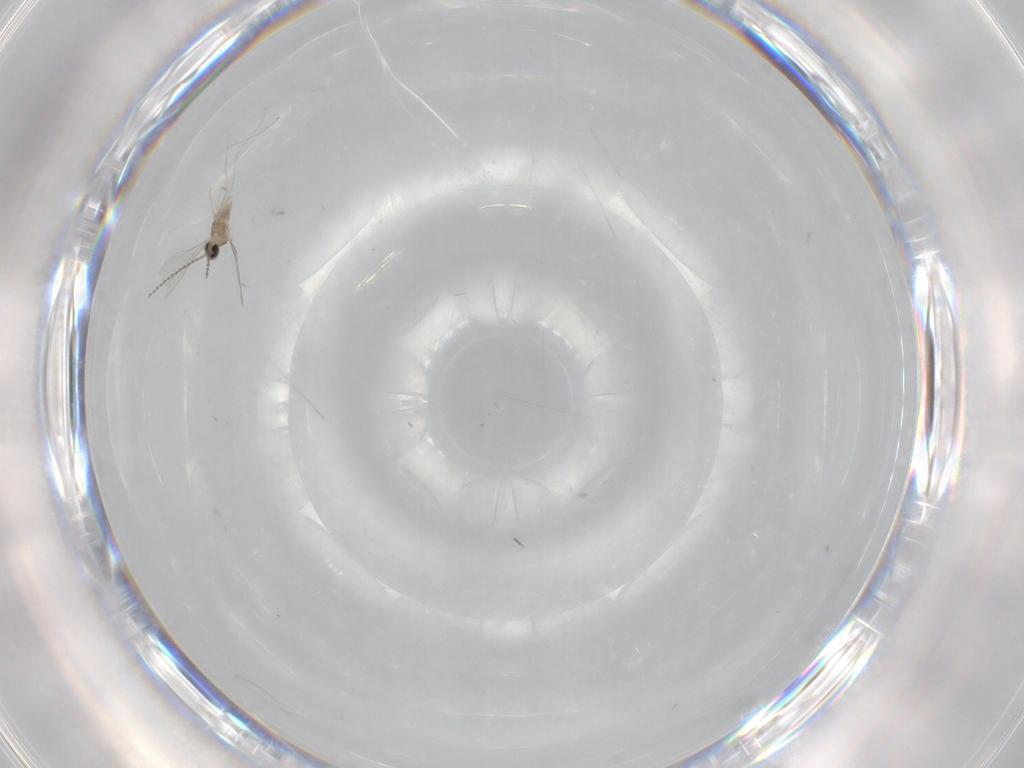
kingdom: Animalia
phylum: Arthropoda
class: Insecta
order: Diptera
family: Cecidomyiidae
